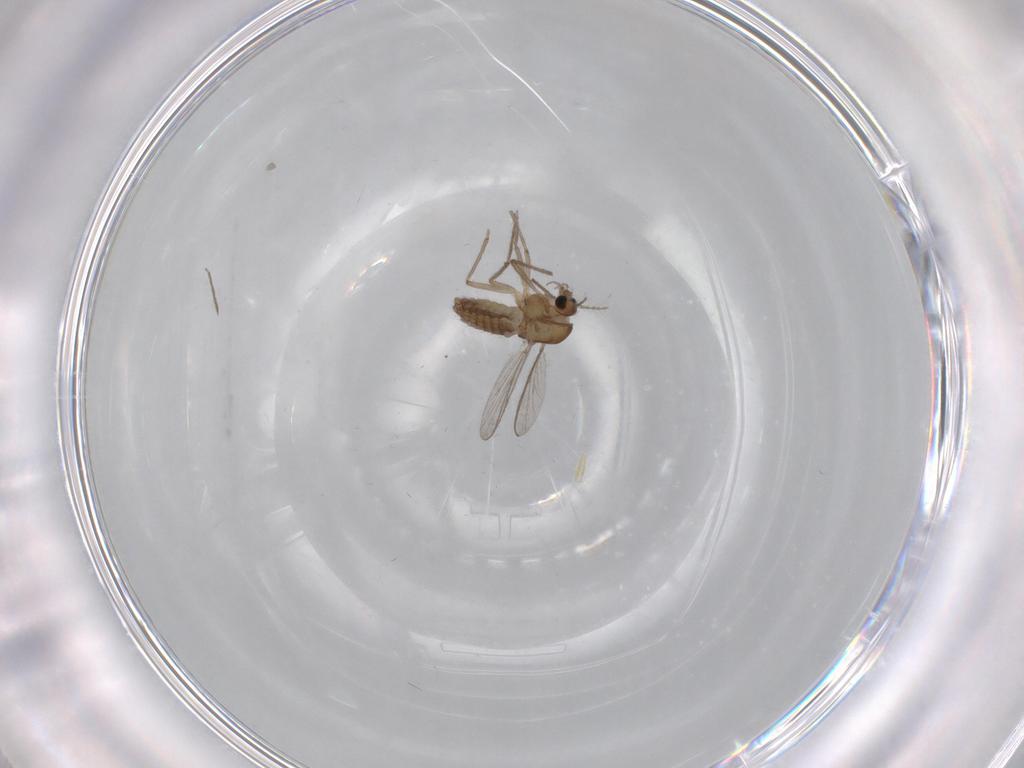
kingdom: Animalia
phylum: Arthropoda
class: Insecta
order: Diptera
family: Chironomidae
